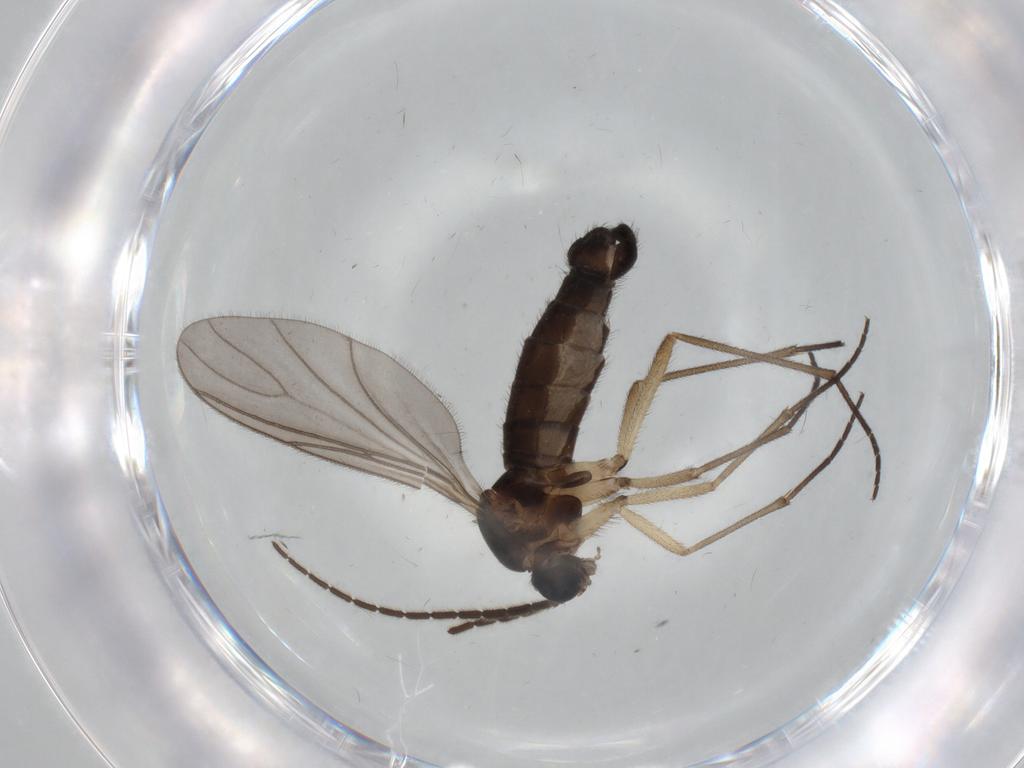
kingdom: Animalia
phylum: Arthropoda
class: Insecta
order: Diptera
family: Sciaridae
